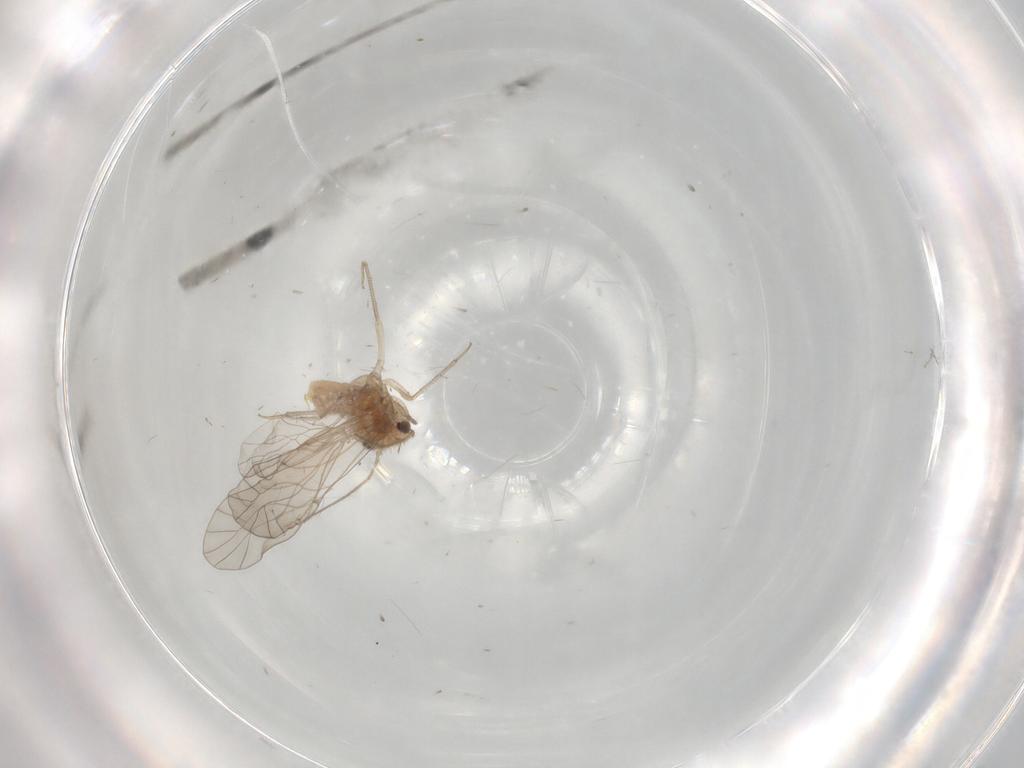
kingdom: Animalia
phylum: Arthropoda
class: Insecta
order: Psocodea
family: Lachesillidae
